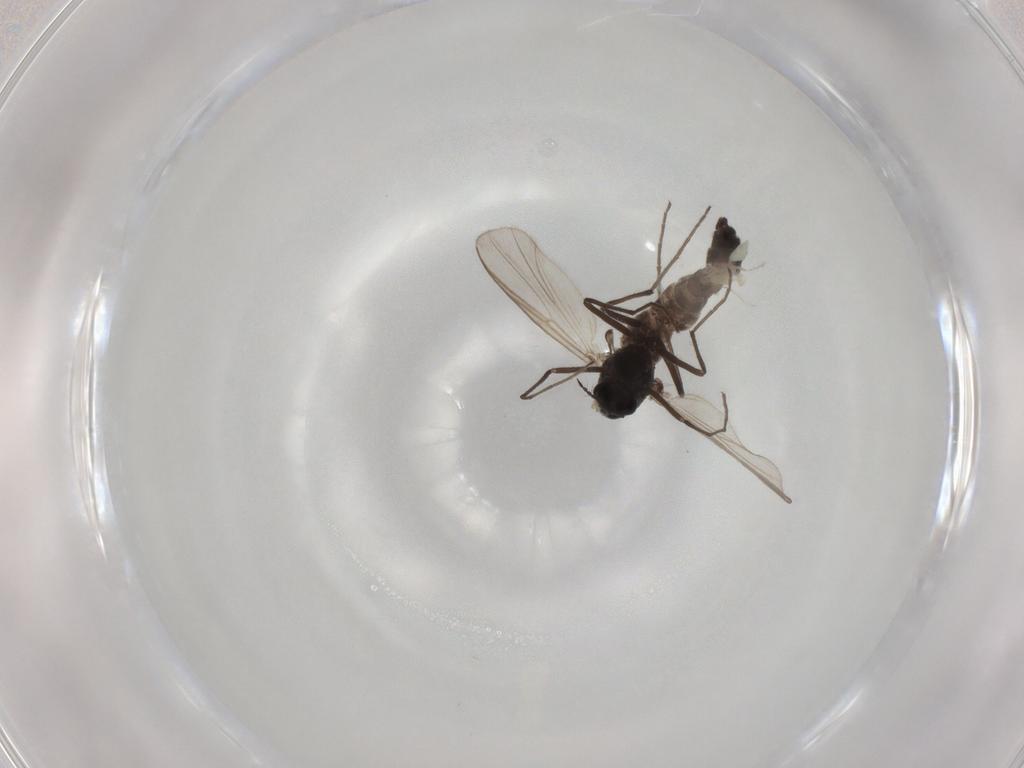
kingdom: Animalia
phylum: Arthropoda
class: Insecta
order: Diptera
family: Chironomidae
